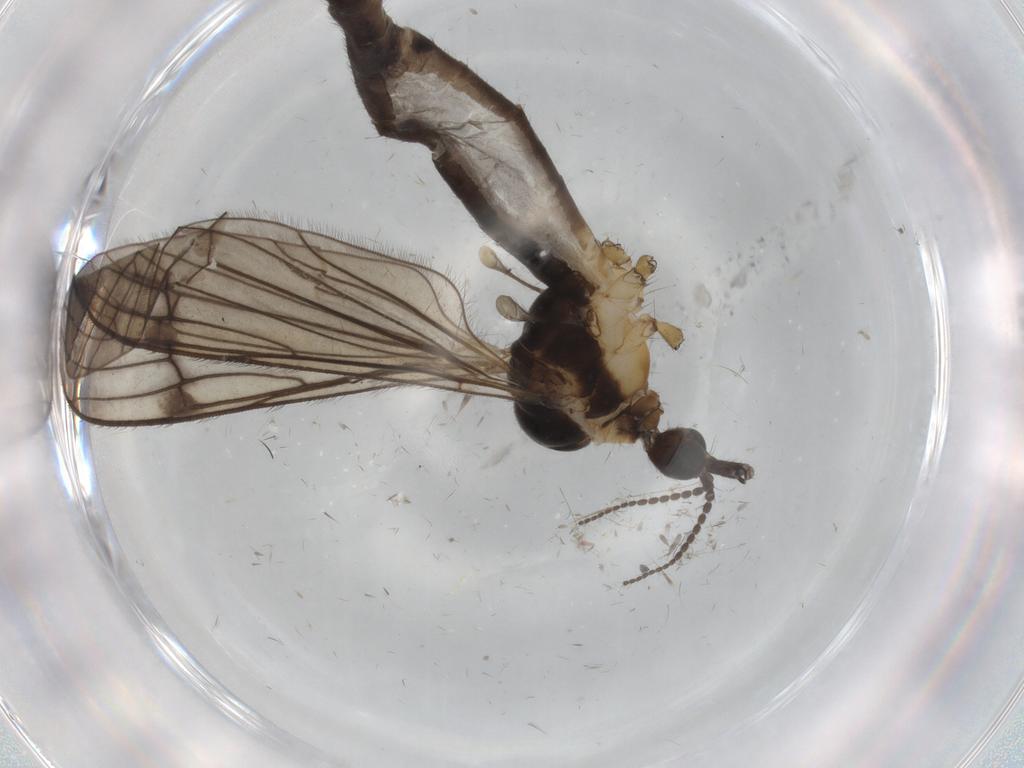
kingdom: Animalia
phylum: Arthropoda
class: Insecta
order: Diptera
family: Limoniidae
